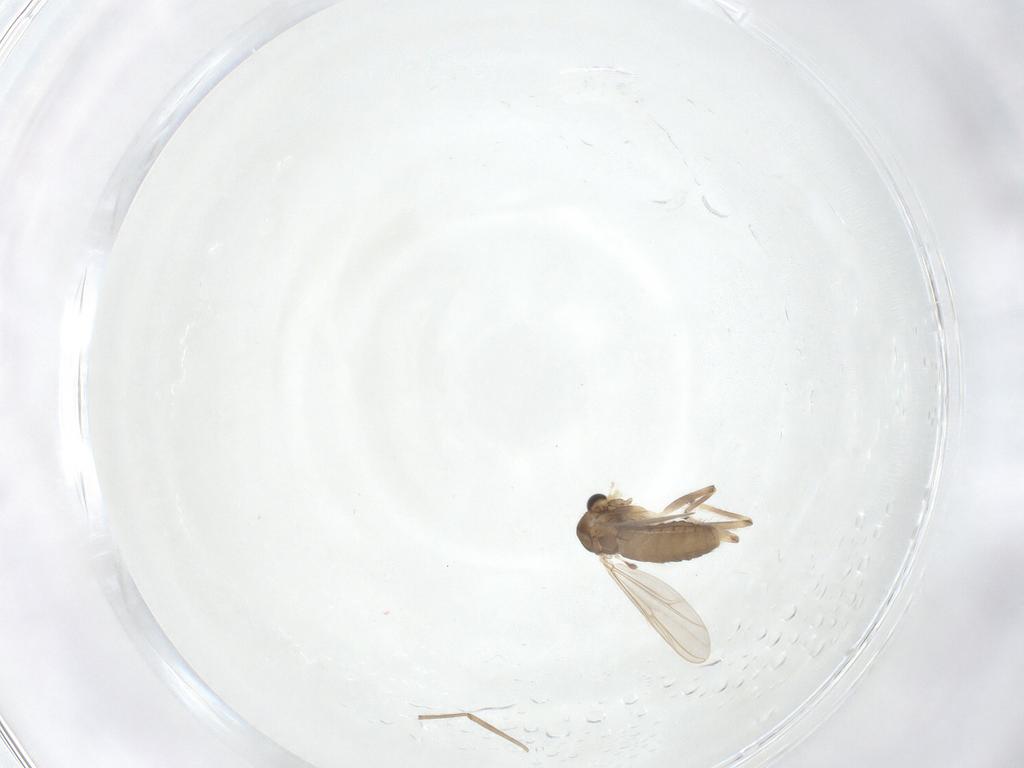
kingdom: Animalia
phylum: Arthropoda
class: Insecta
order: Diptera
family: Chironomidae
